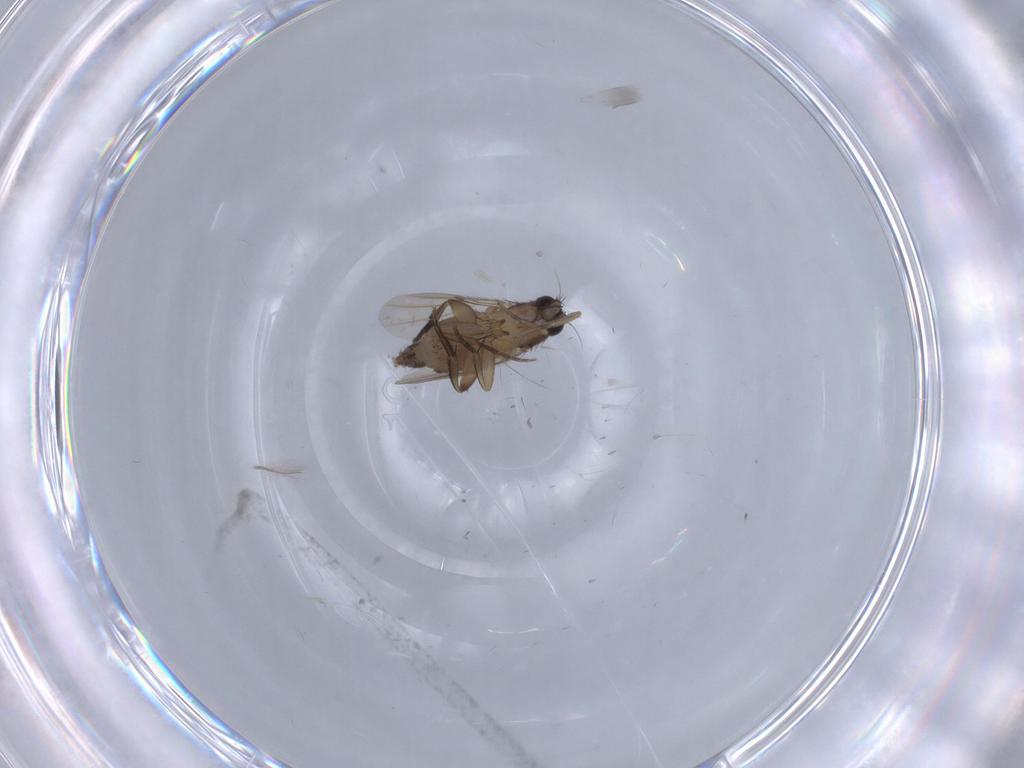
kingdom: Animalia
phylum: Arthropoda
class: Insecta
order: Diptera
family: Phoridae
